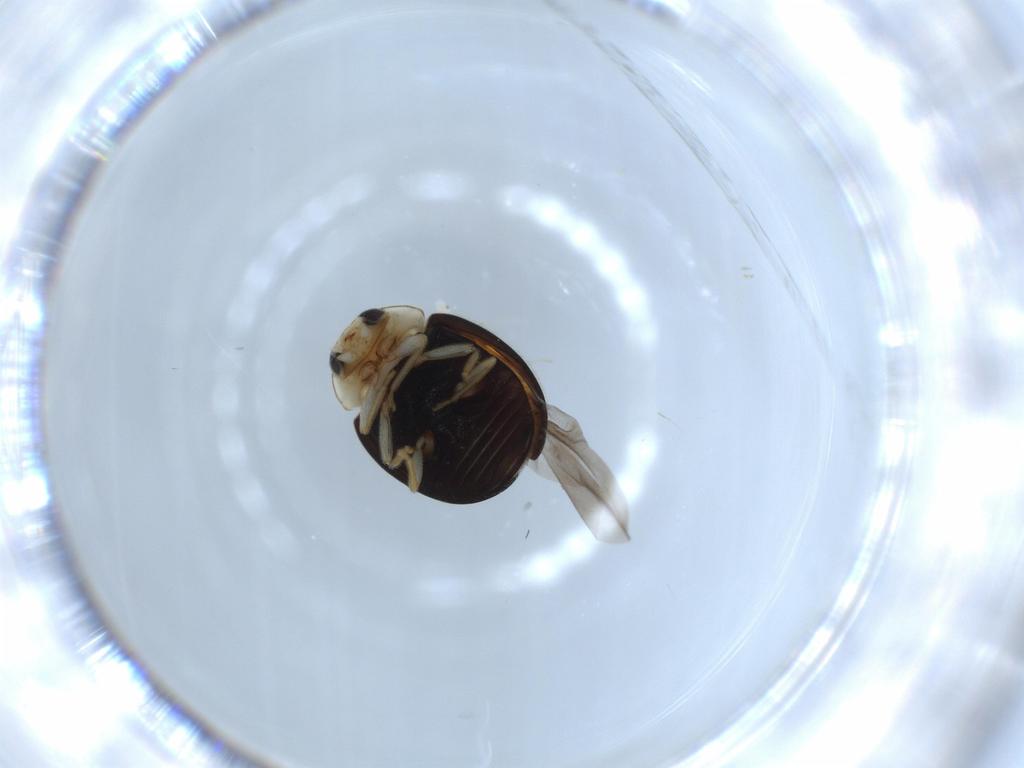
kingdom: Animalia
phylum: Arthropoda
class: Insecta
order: Coleoptera
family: Coccinellidae
